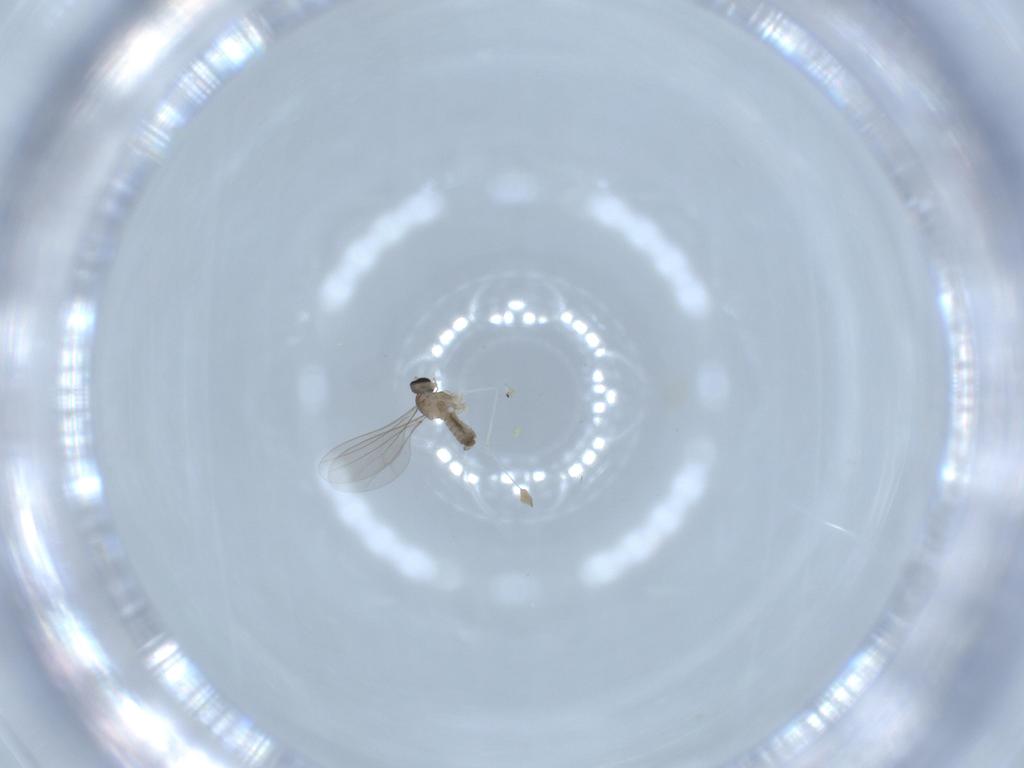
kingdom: Animalia
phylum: Arthropoda
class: Insecta
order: Diptera
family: Cecidomyiidae
